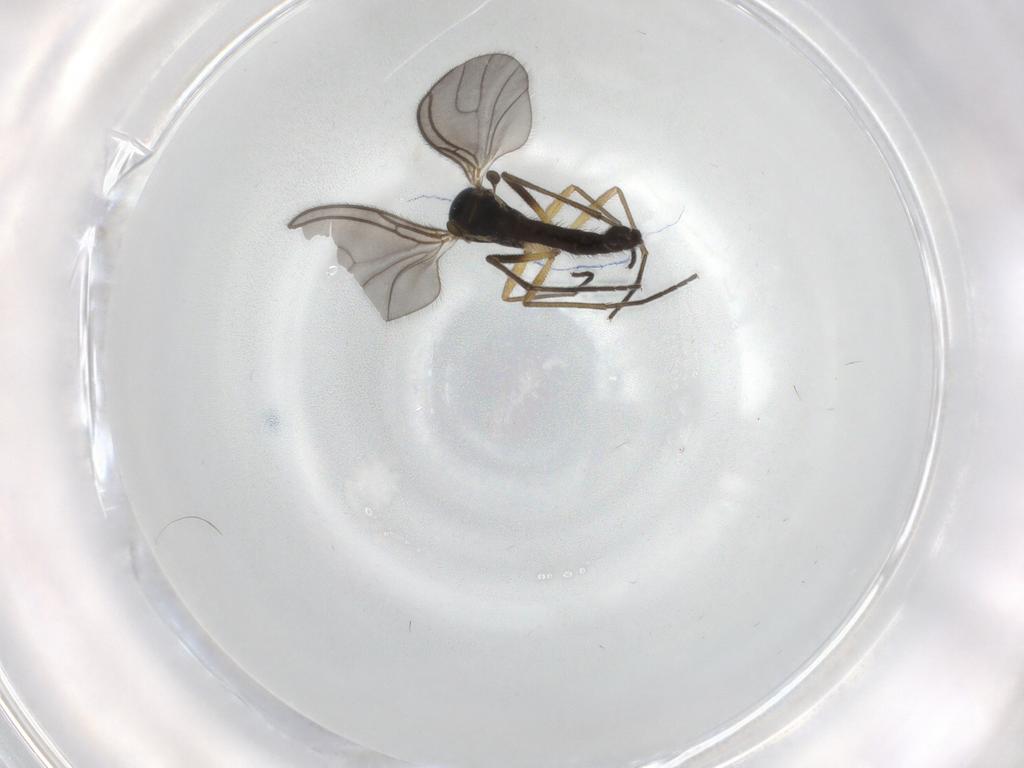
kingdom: Animalia
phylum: Arthropoda
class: Insecta
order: Diptera
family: Sciaridae
